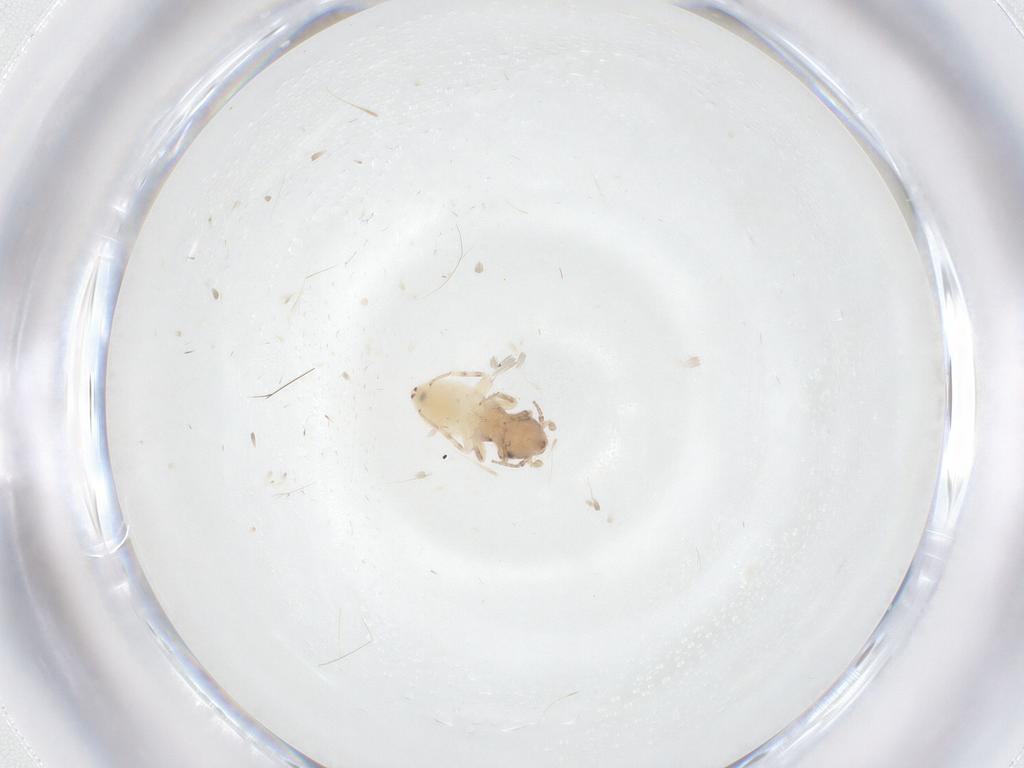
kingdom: Animalia
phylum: Arthropoda
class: Insecta
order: Psocodea
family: Lepidopsocidae
